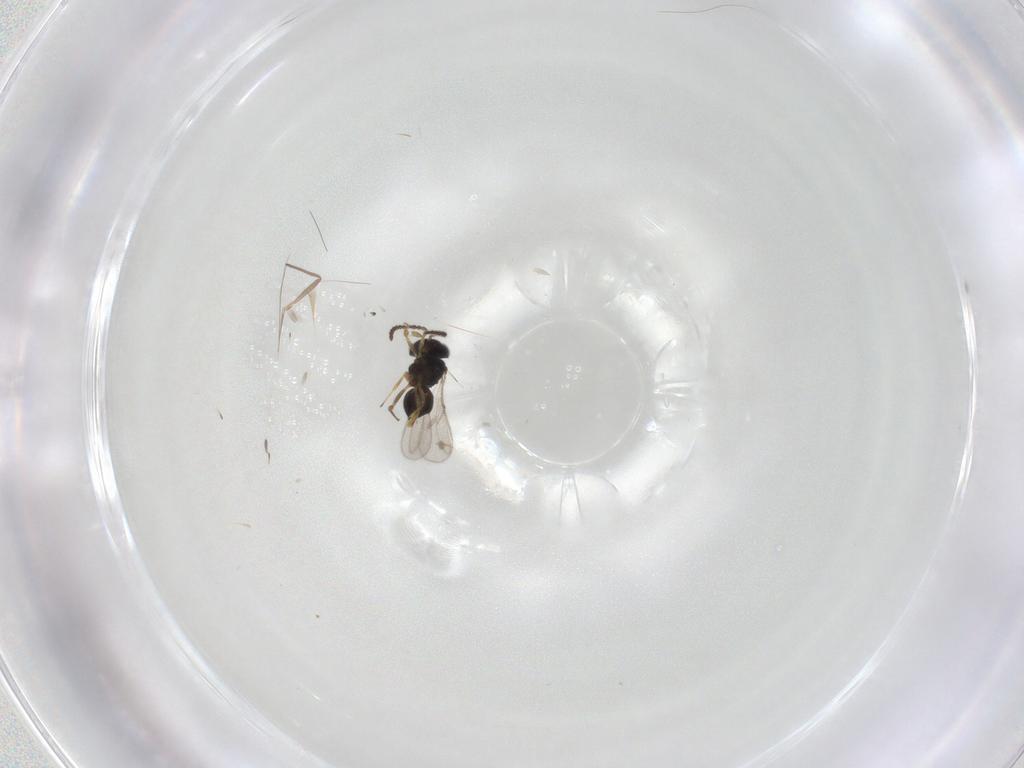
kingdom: Animalia
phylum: Arthropoda
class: Insecta
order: Hymenoptera
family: Scelionidae
